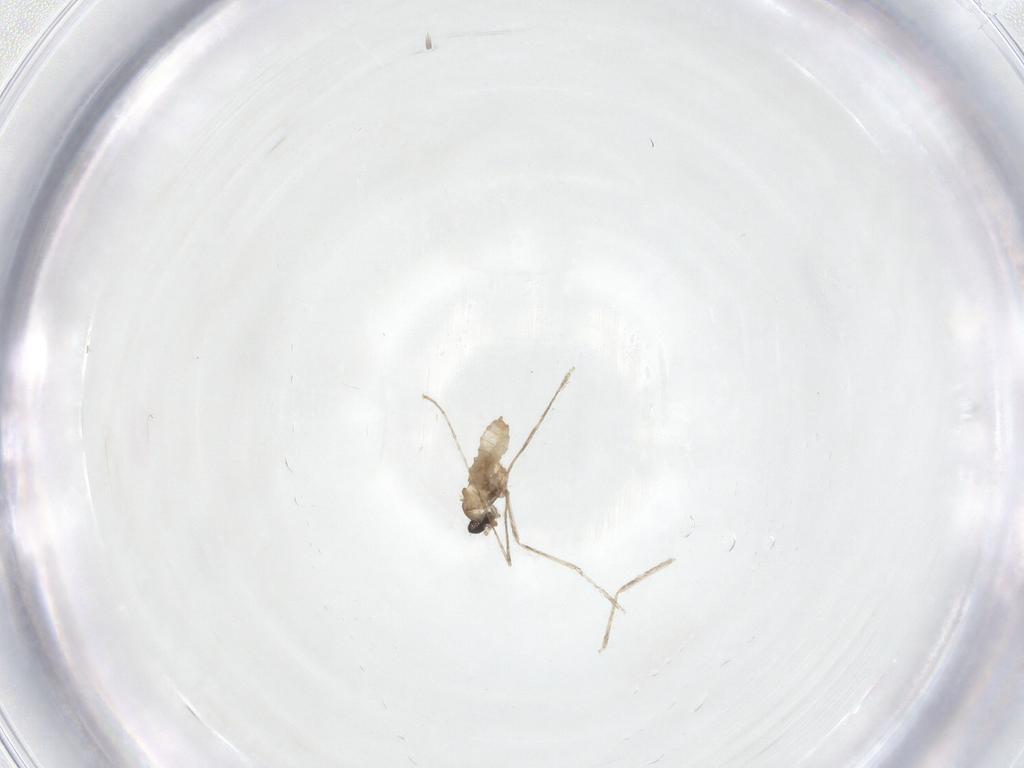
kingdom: Animalia
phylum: Arthropoda
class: Insecta
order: Diptera
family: Cecidomyiidae
